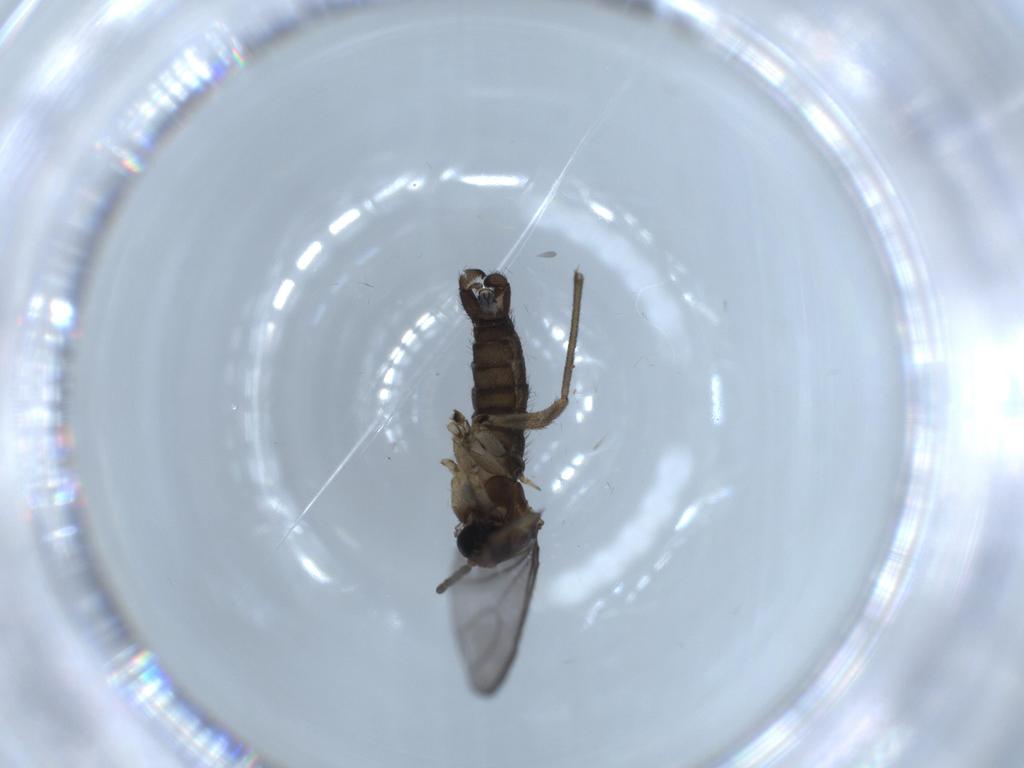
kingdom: Animalia
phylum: Arthropoda
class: Insecta
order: Diptera
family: Sciaridae
